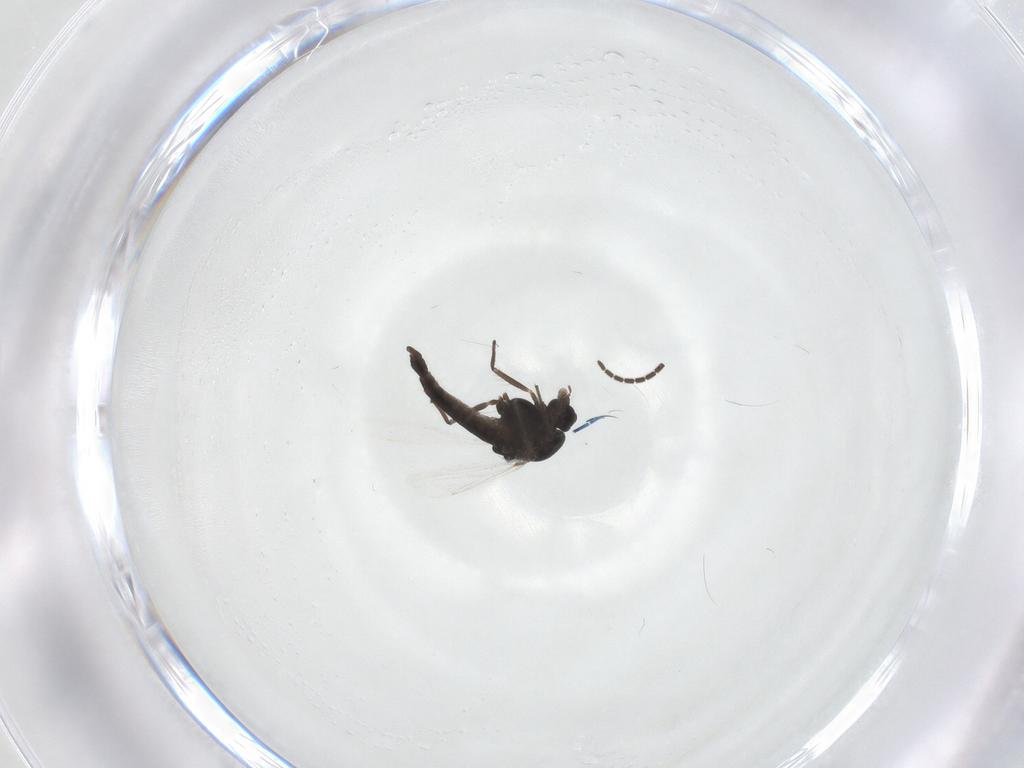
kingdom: Animalia
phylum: Arthropoda
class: Insecta
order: Diptera
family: Chironomidae
